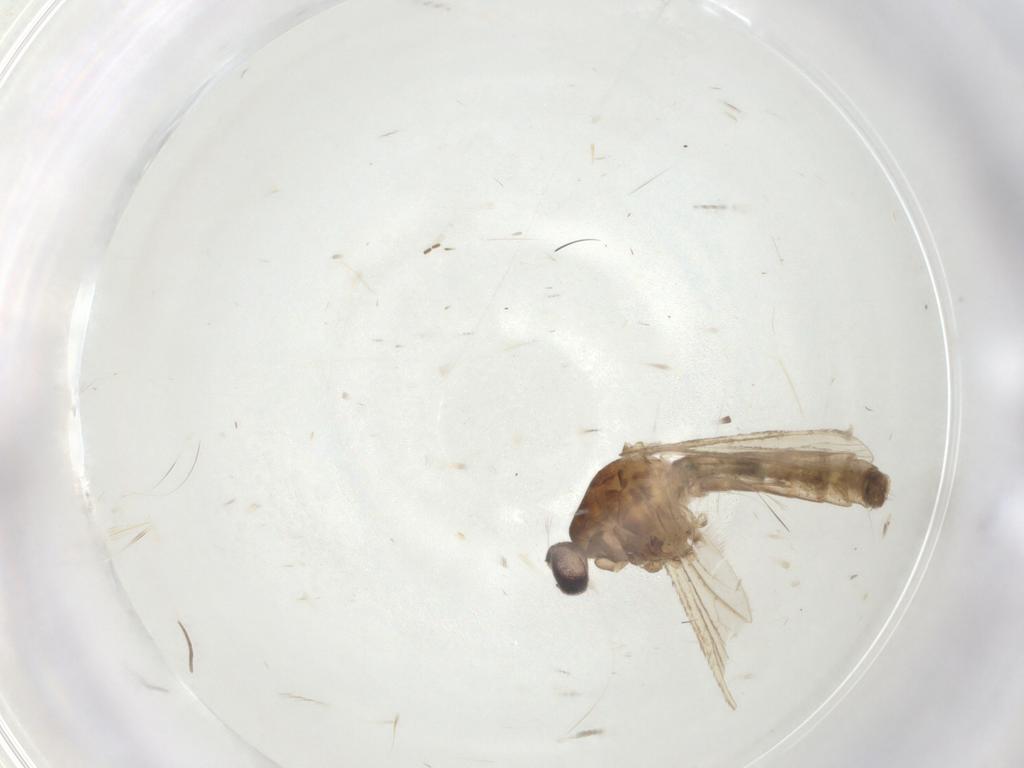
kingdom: Animalia
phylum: Arthropoda
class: Insecta
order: Diptera
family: Culicidae
